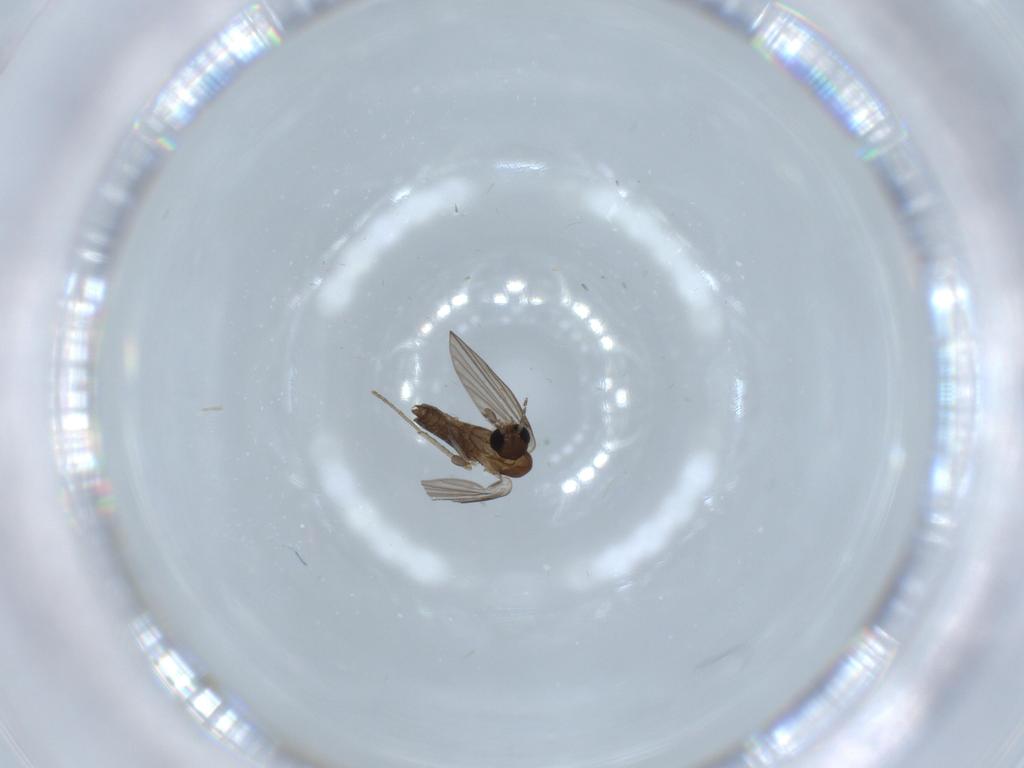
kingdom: Animalia
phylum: Arthropoda
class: Insecta
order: Diptera
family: Psychodidae
